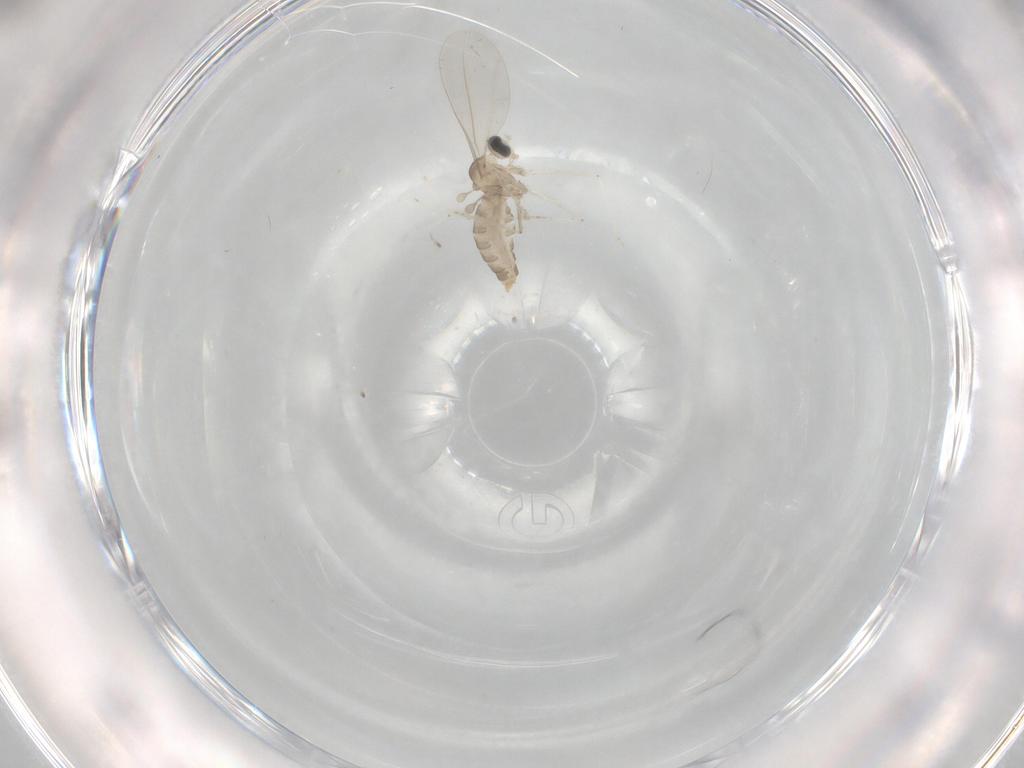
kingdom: Animalia
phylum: Arthropoda
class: Insecta
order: Diptera
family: Cecidomyiidae
